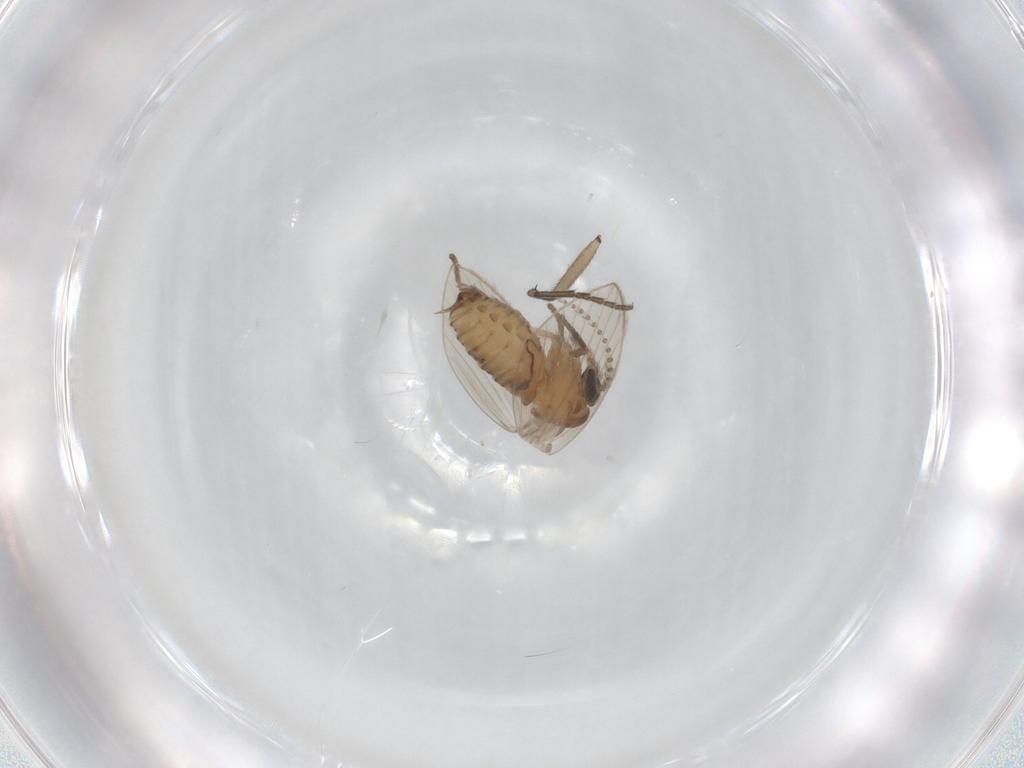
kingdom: Animalia
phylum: Arthropoda
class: Insecta
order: Diptera
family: Psychodidae
